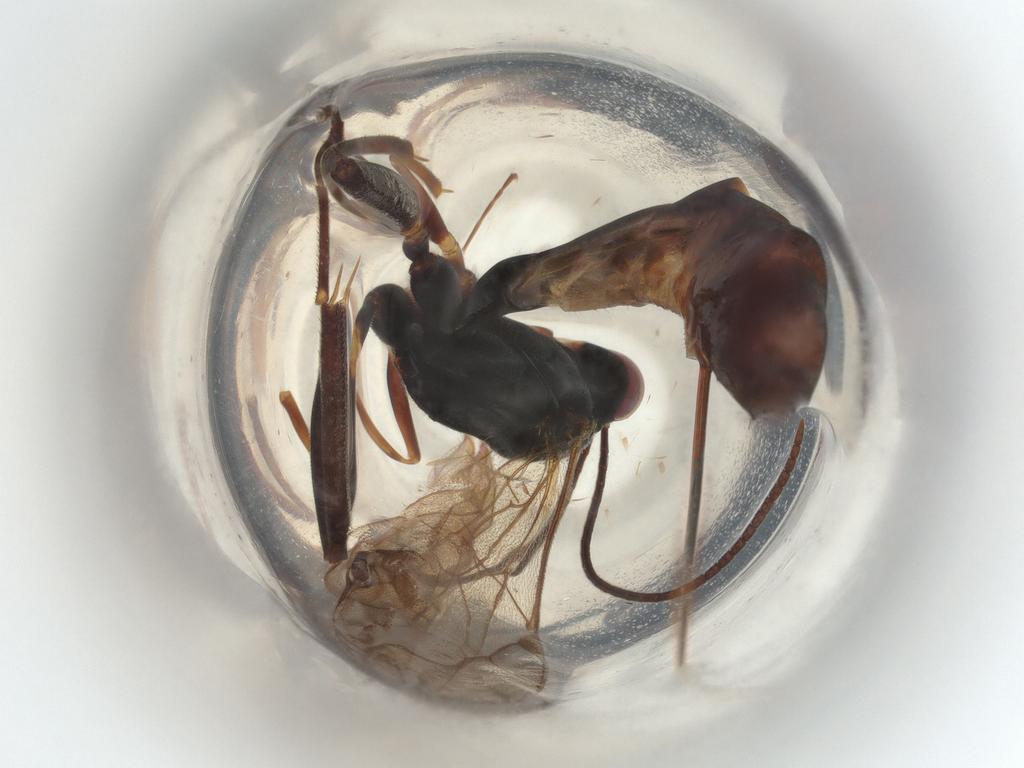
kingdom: Animalia
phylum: Arthropoda
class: Insecta
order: Hymenoptera
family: Ichneumonidae
